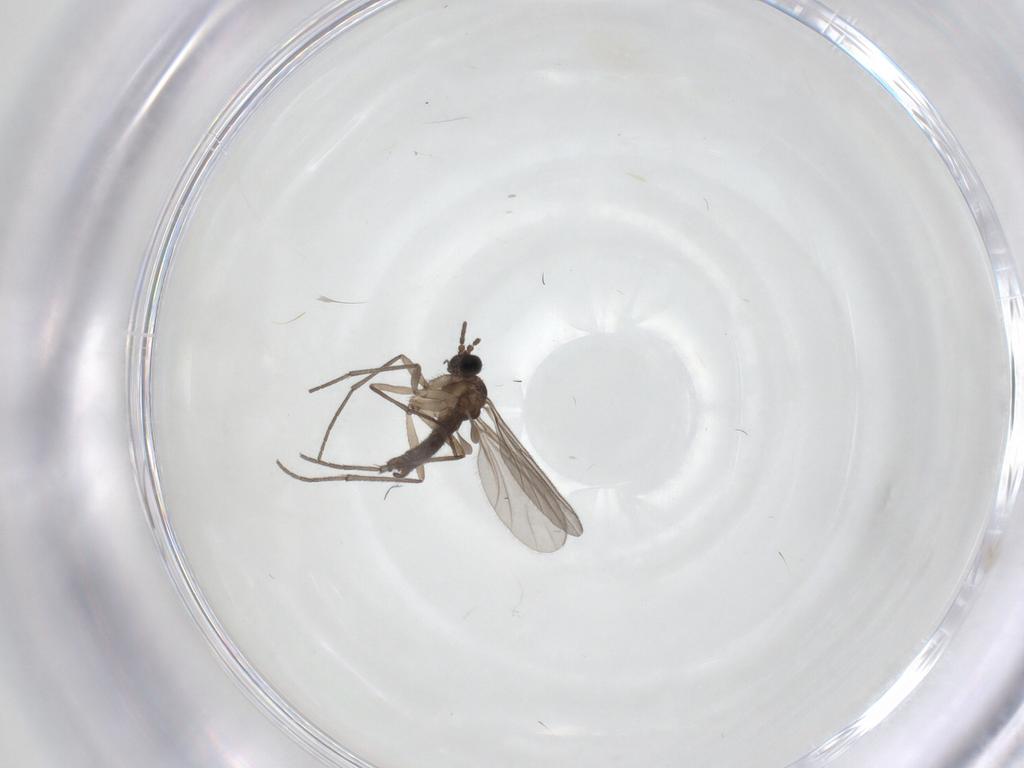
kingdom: Animalia
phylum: Arthropoda
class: Insecta
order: Diptera
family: Sciaridae
